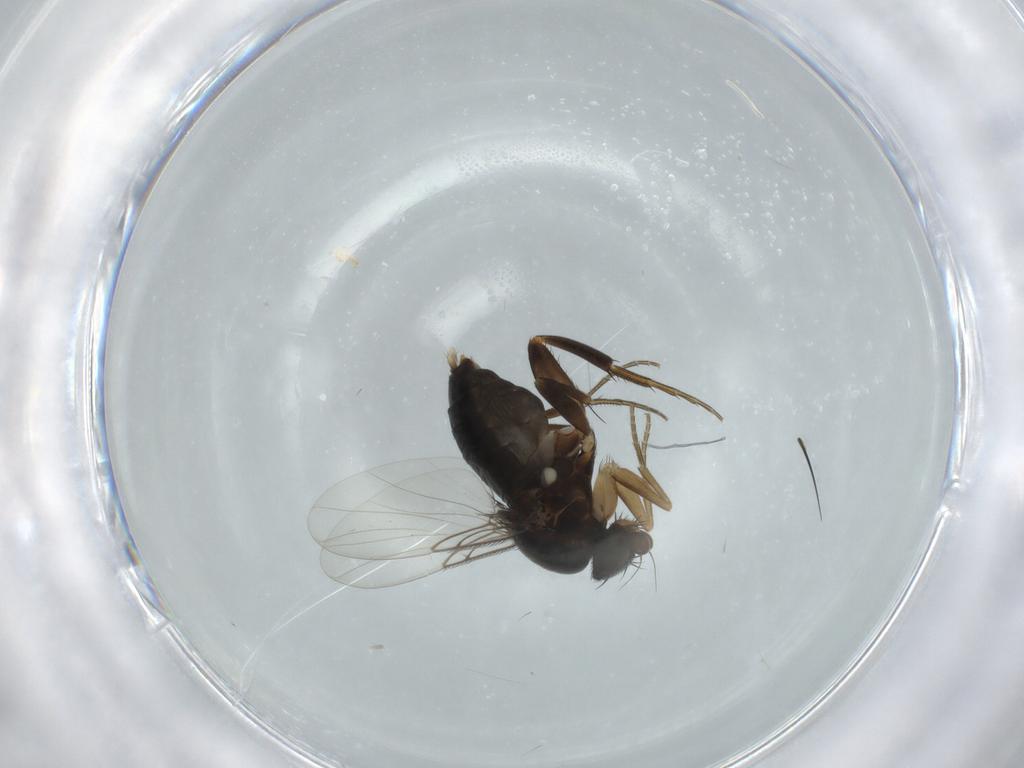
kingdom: Animalia
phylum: Arthropoda
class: Insecta
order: Diptera
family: Phoridae
